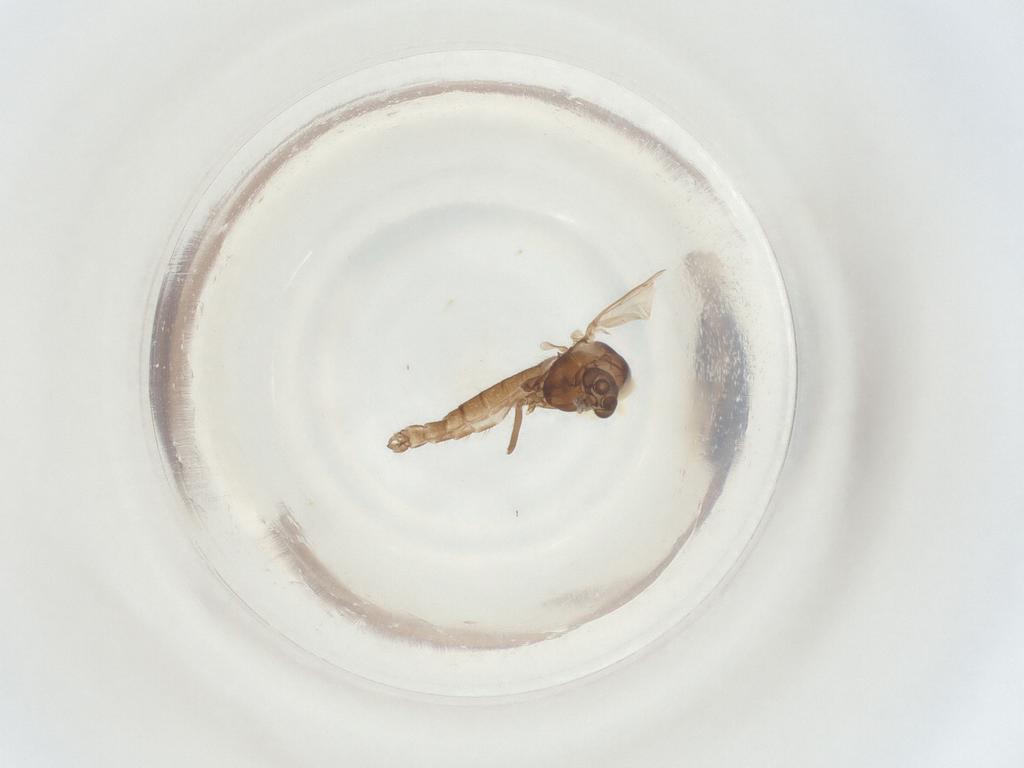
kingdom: Animalia
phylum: Arthropoda
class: Insecta
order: Diptera
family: Chironomidae
